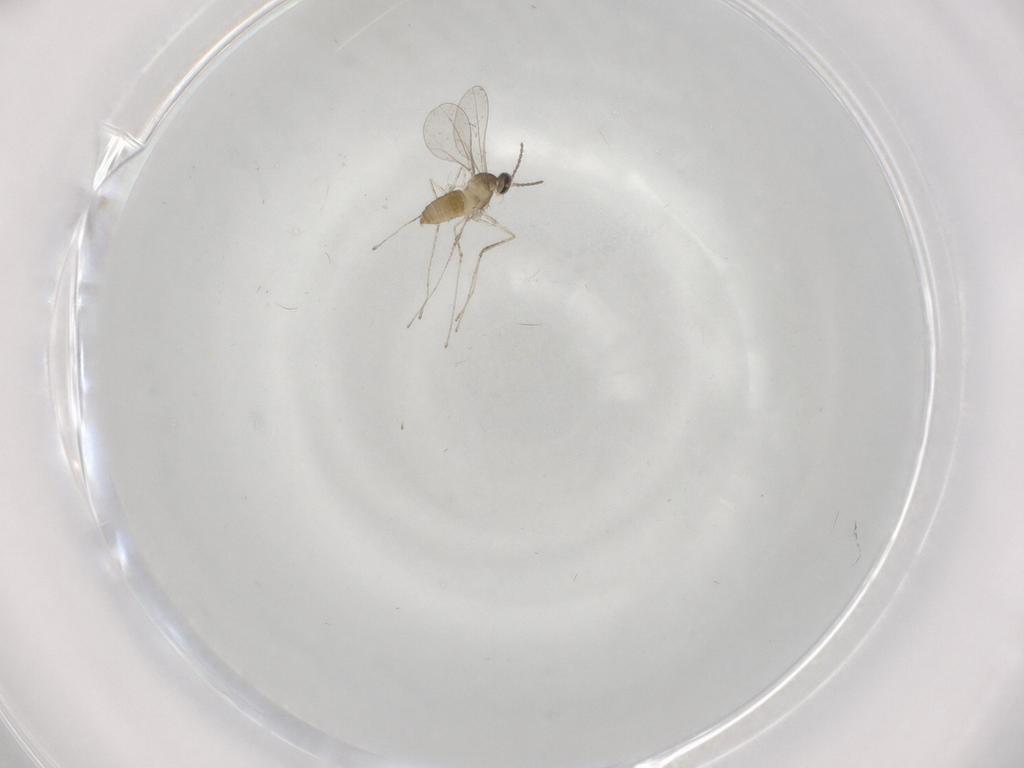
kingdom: Animalia
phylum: Arthropoda
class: Insecta
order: Diptera
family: Cecidomyiidae
